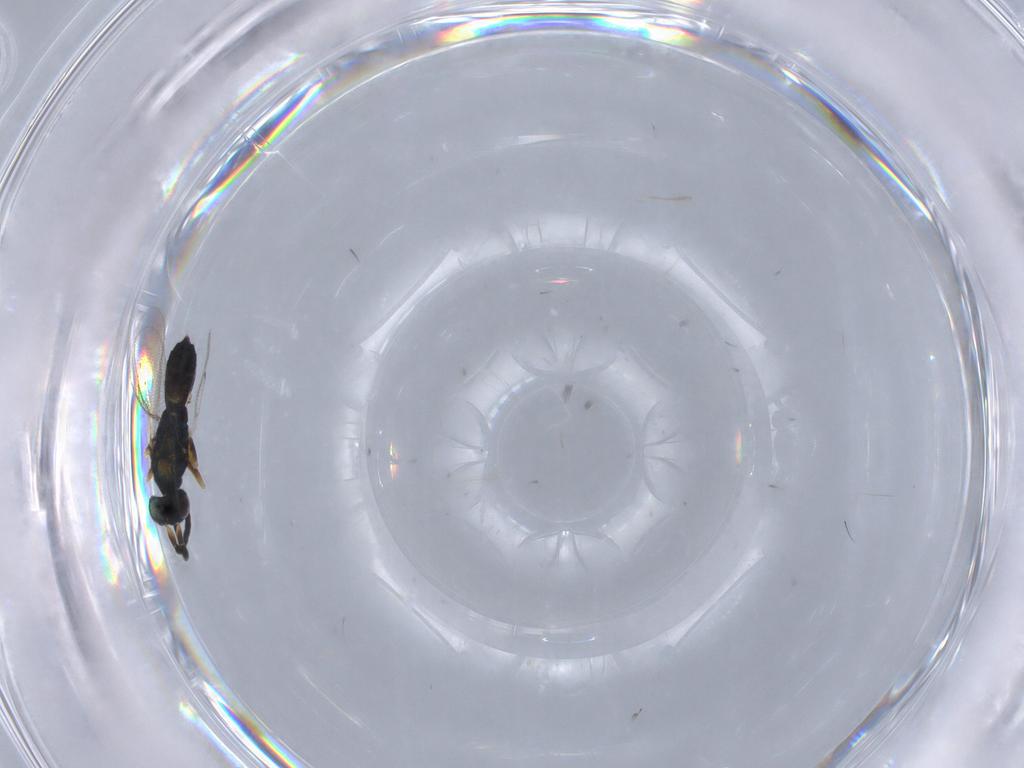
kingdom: Animalia
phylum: Arthropoda
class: Insecta
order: Hymenoptera
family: Eupelmidae
